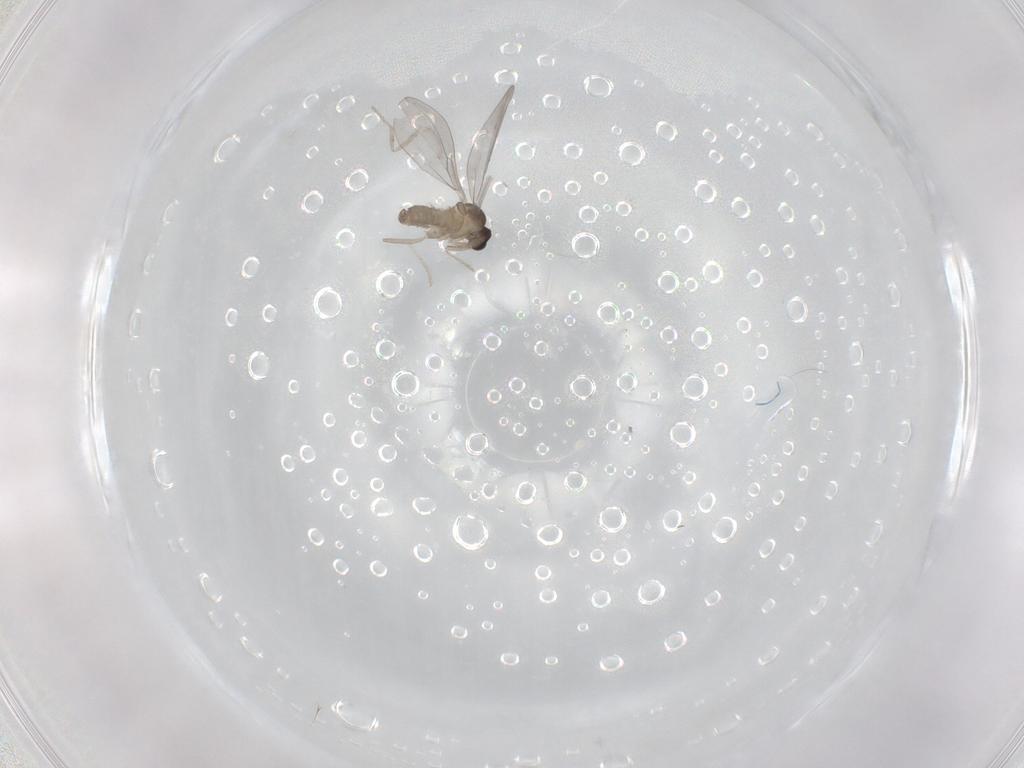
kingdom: Animalia
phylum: Arthropoda
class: Insecta
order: Diptera
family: Cecidomyiidae
